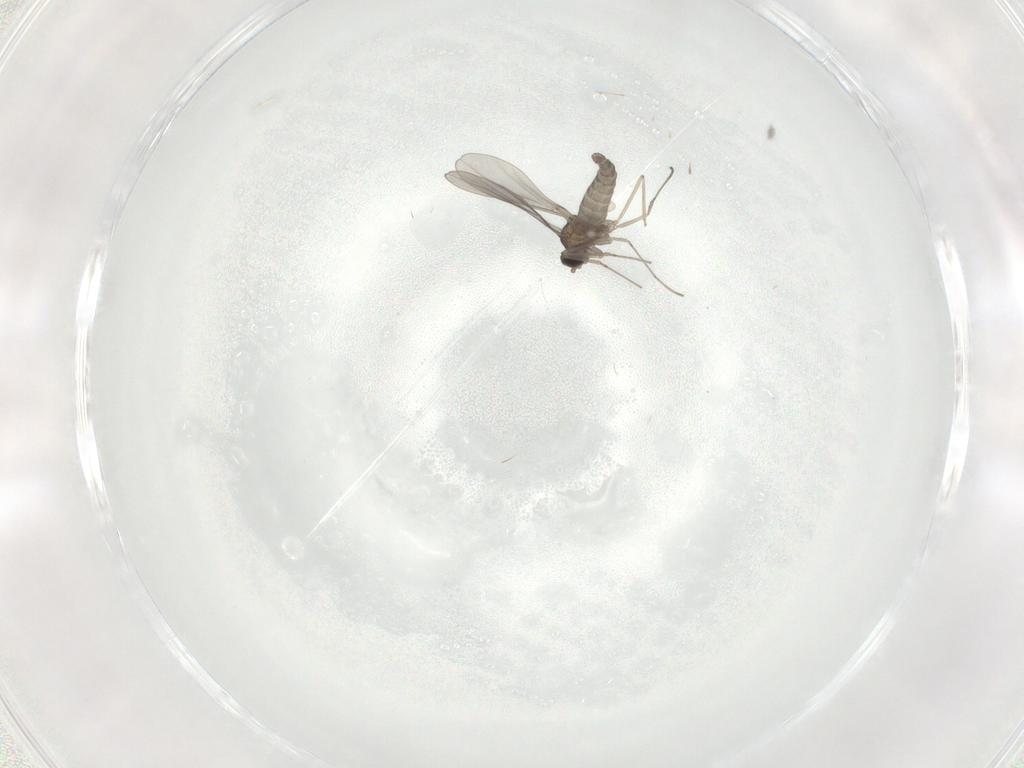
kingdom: Animalia
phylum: Arthropoda
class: Insecta
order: Diptera
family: Cecidomyiidae
